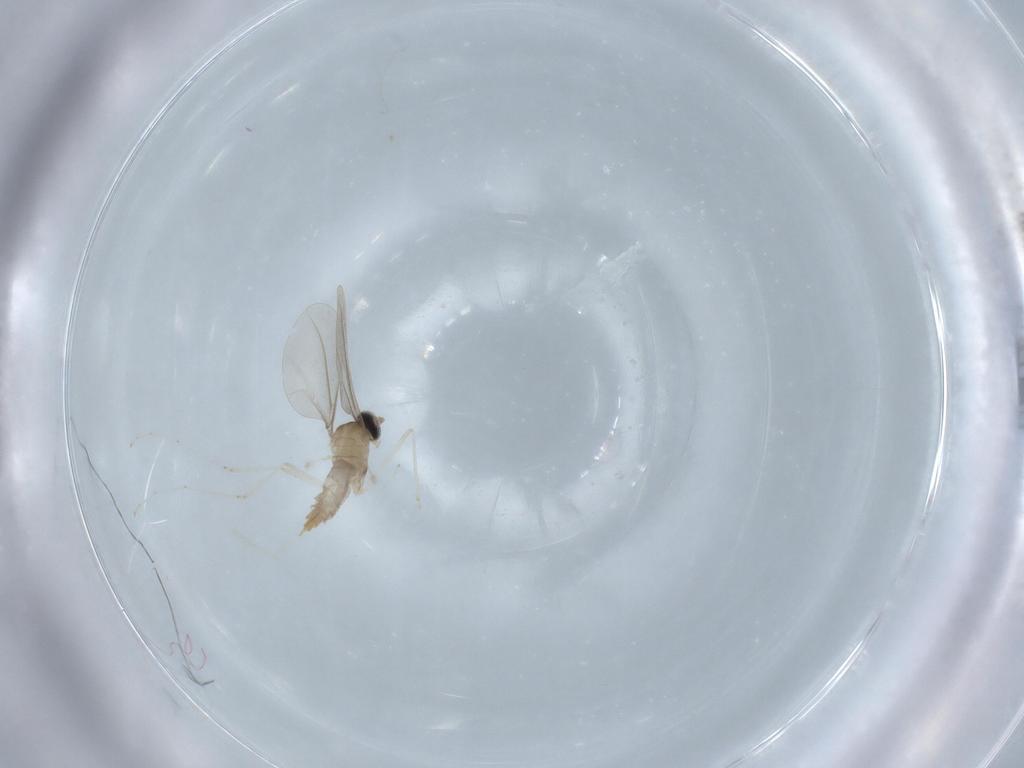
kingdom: Animalia
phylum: Arthropoda
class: Insecta
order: Diptera
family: Cecidomyiidae
